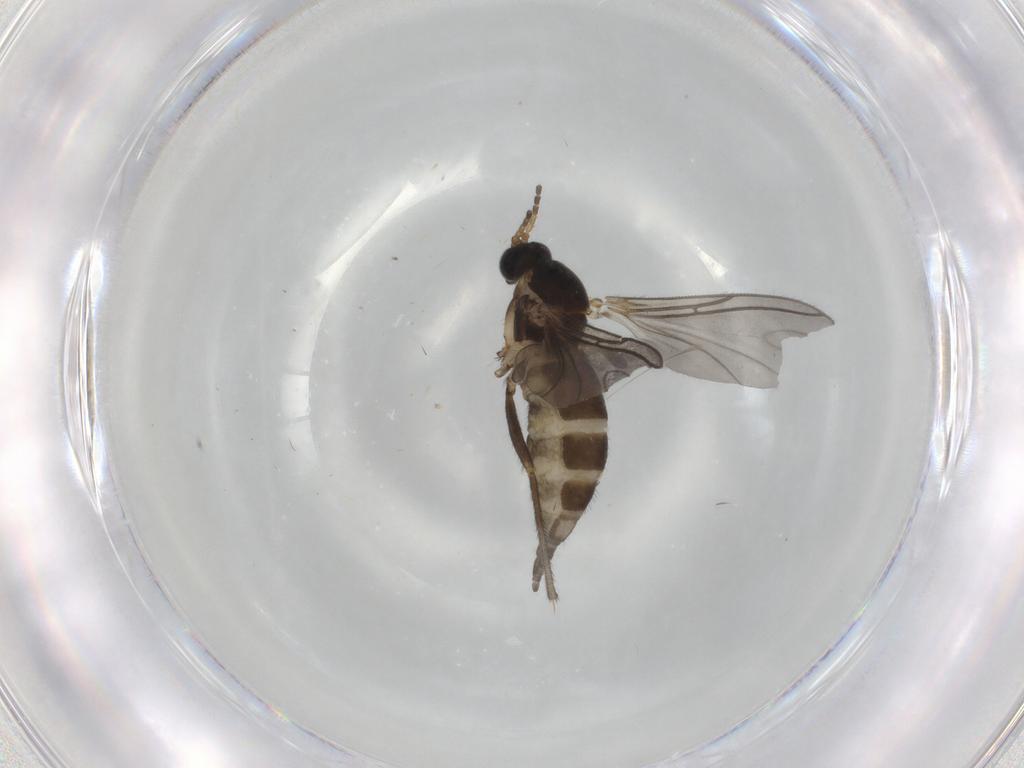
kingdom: Animalia
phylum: Arthropoda
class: Insecta
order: Diptera
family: Sciaridae
